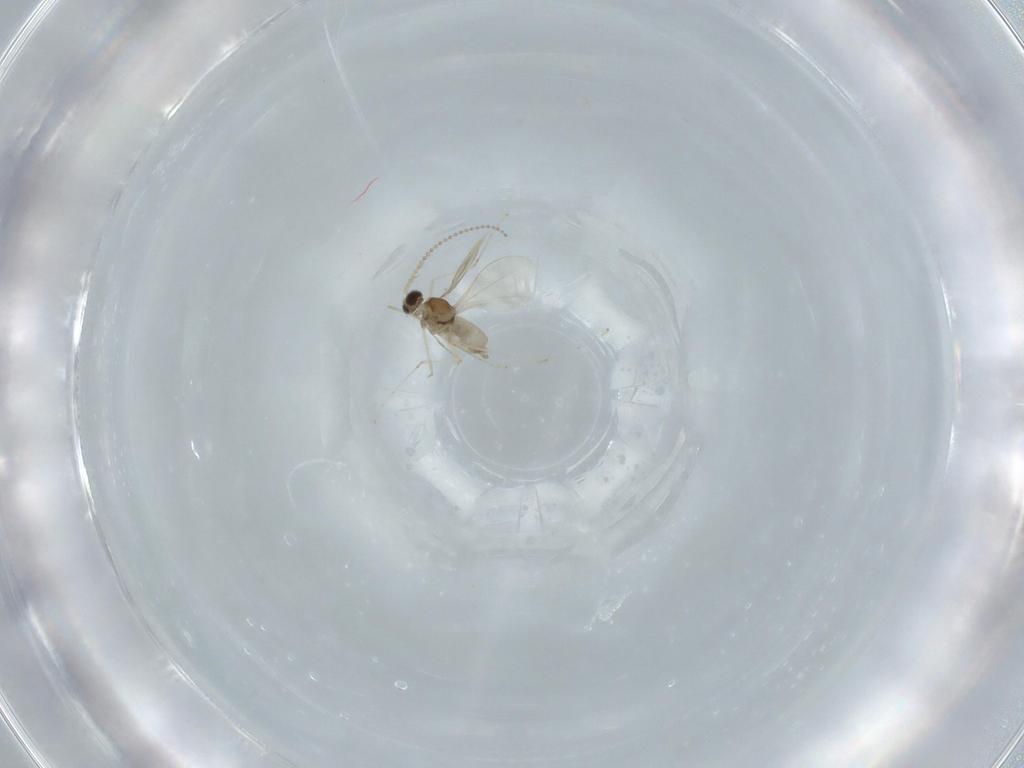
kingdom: Animalia
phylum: Arthropoda
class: Insecta
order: Diptera
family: Cecidomyiidae
